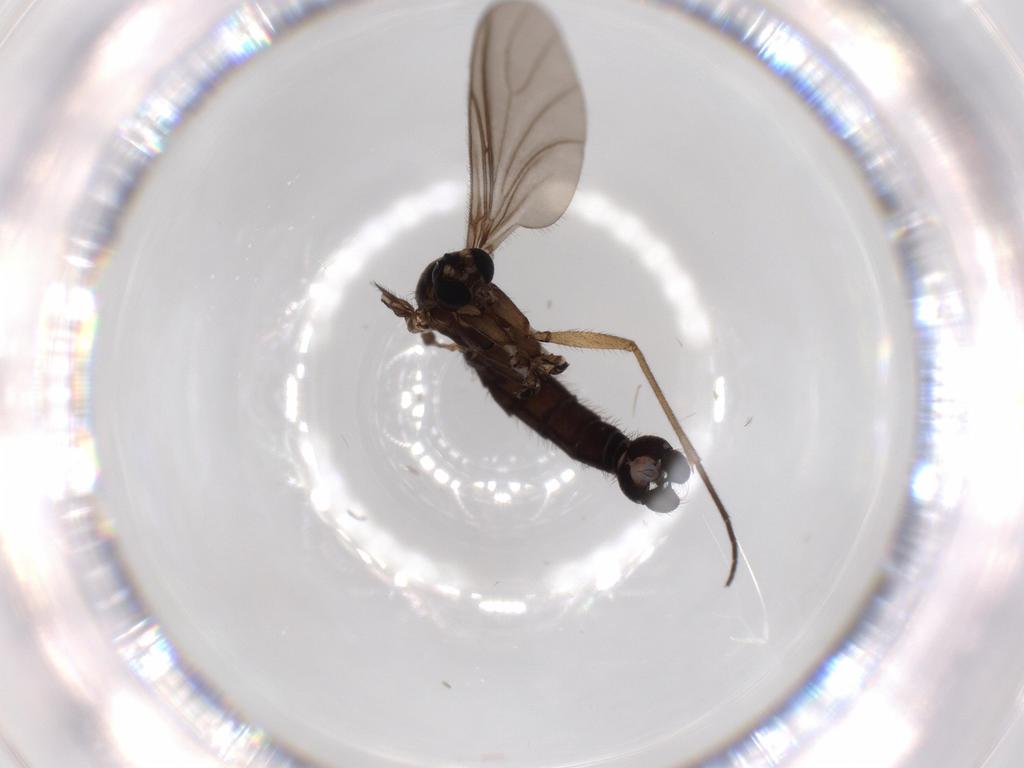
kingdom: Animalia
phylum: Arthropoda
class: Insecta
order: Diptera
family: Sciaridae
